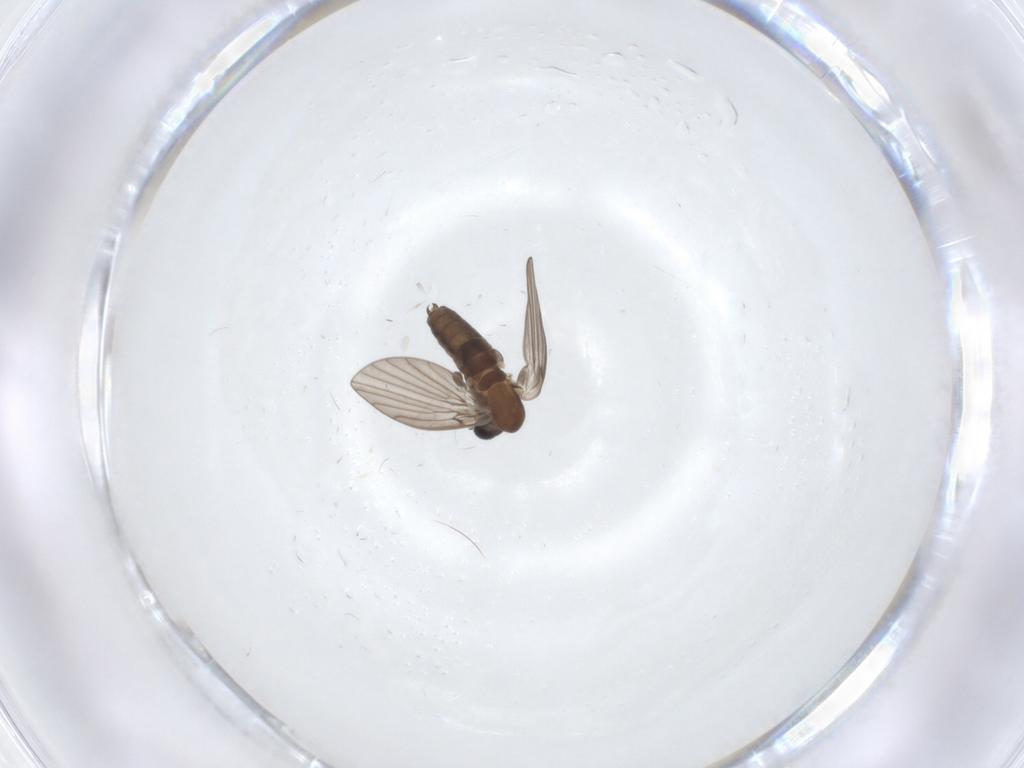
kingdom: Animalia
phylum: Arthropoda
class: Insecta
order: Diptera
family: Psychodidae
